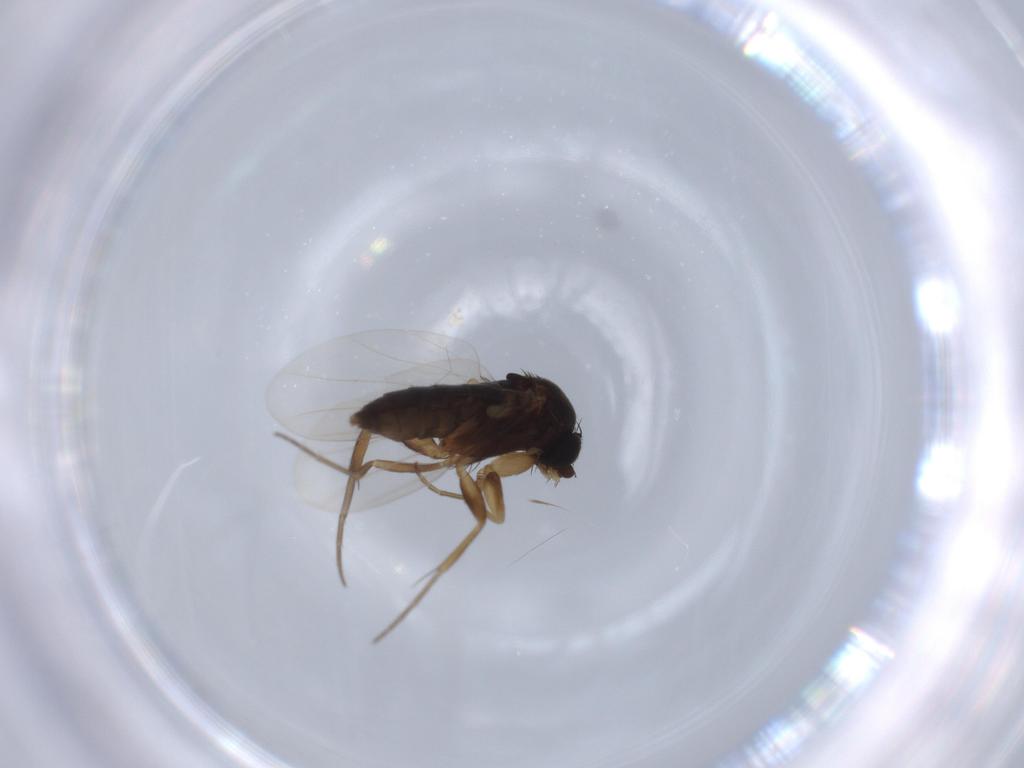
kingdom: Animalia
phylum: Arthropoda
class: Insecta
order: Diptera
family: Phoridae
